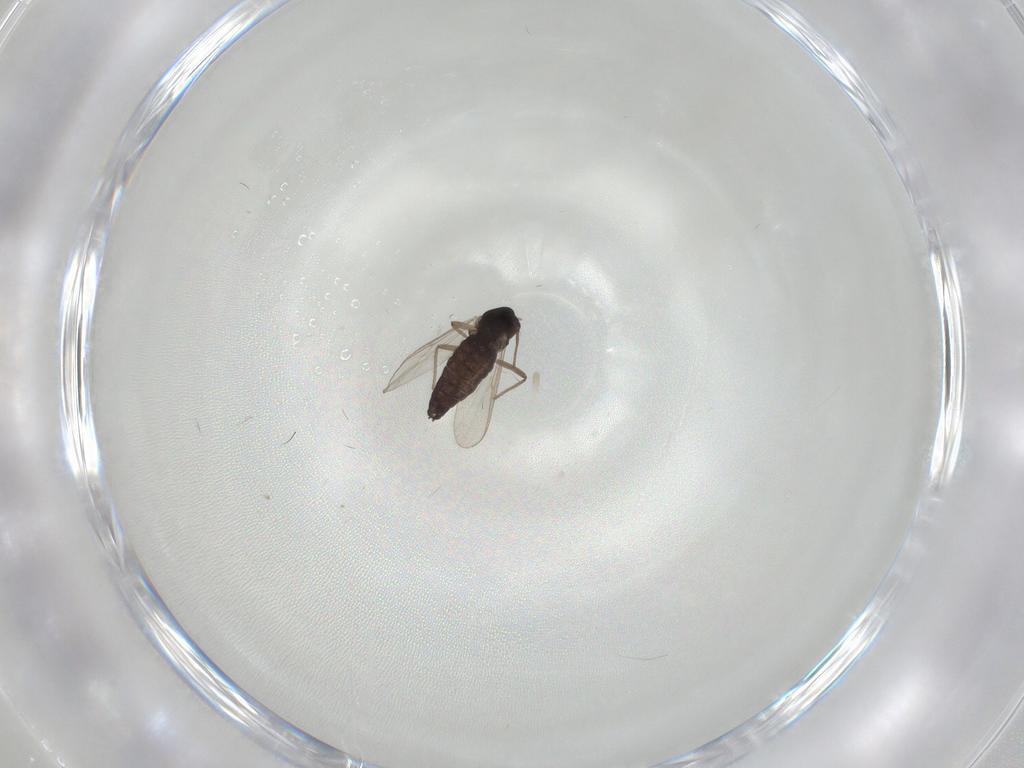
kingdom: Animalia
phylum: Arthropoda
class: Insecta
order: Diptera
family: Chironomidae
